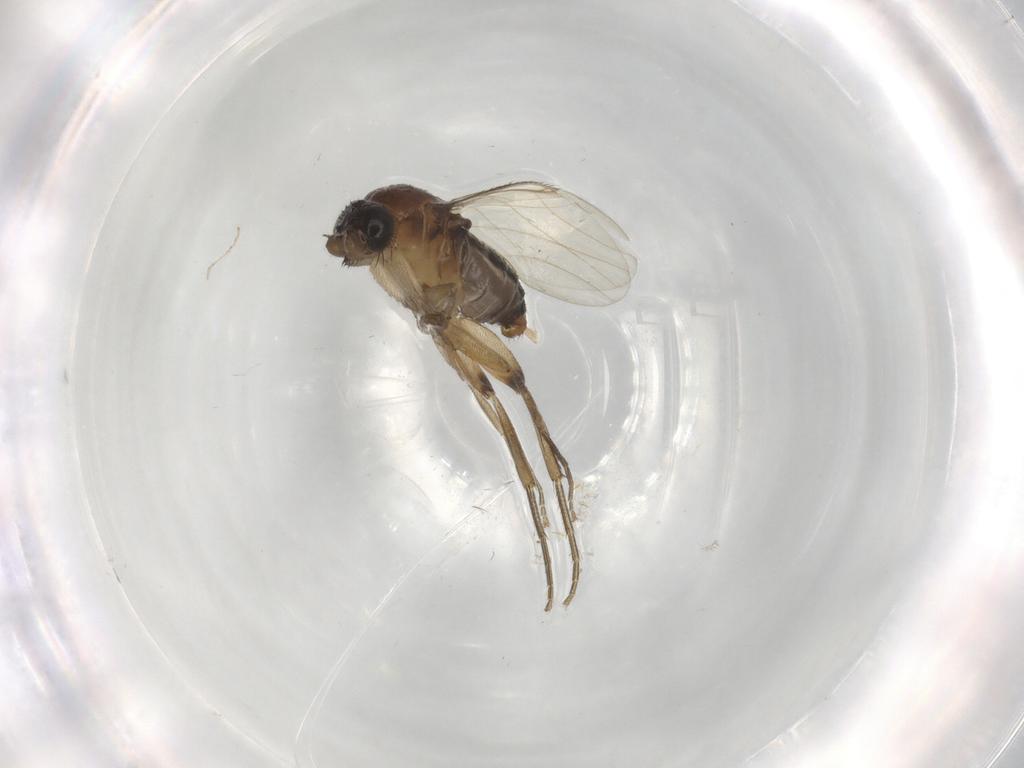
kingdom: Animalia
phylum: Arthropoda
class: Insecta
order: Diptera
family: Phoridae
